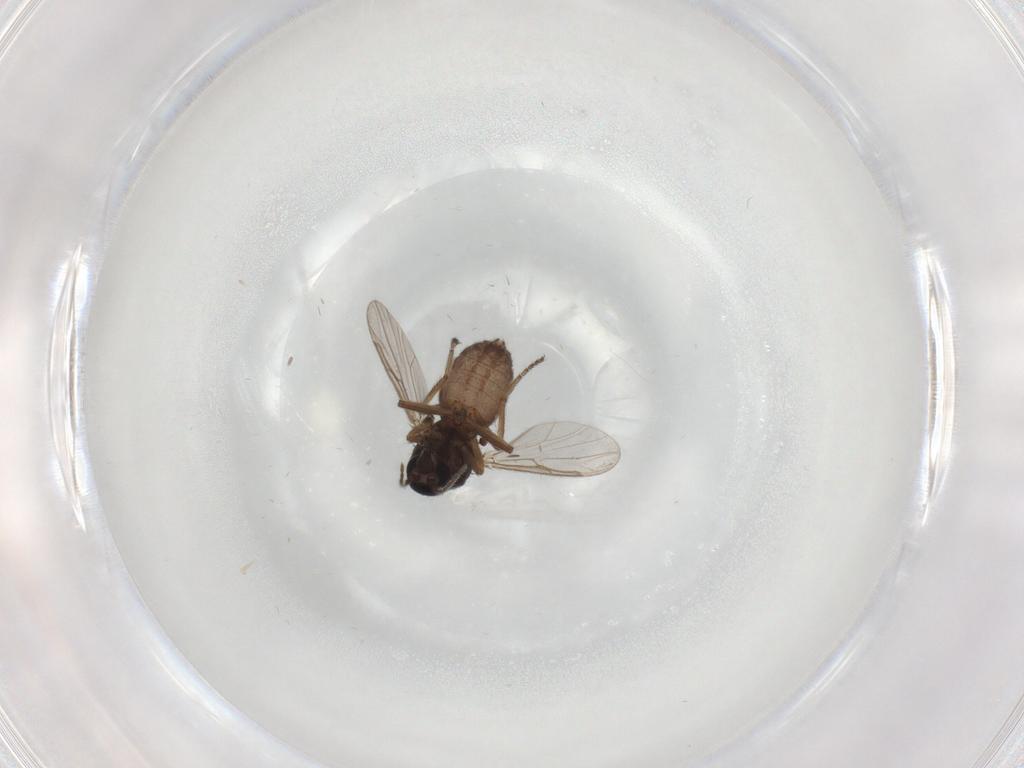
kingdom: Animalia
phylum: Arthropoda
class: Insecta
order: Diptera
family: Ceratopogonidae
